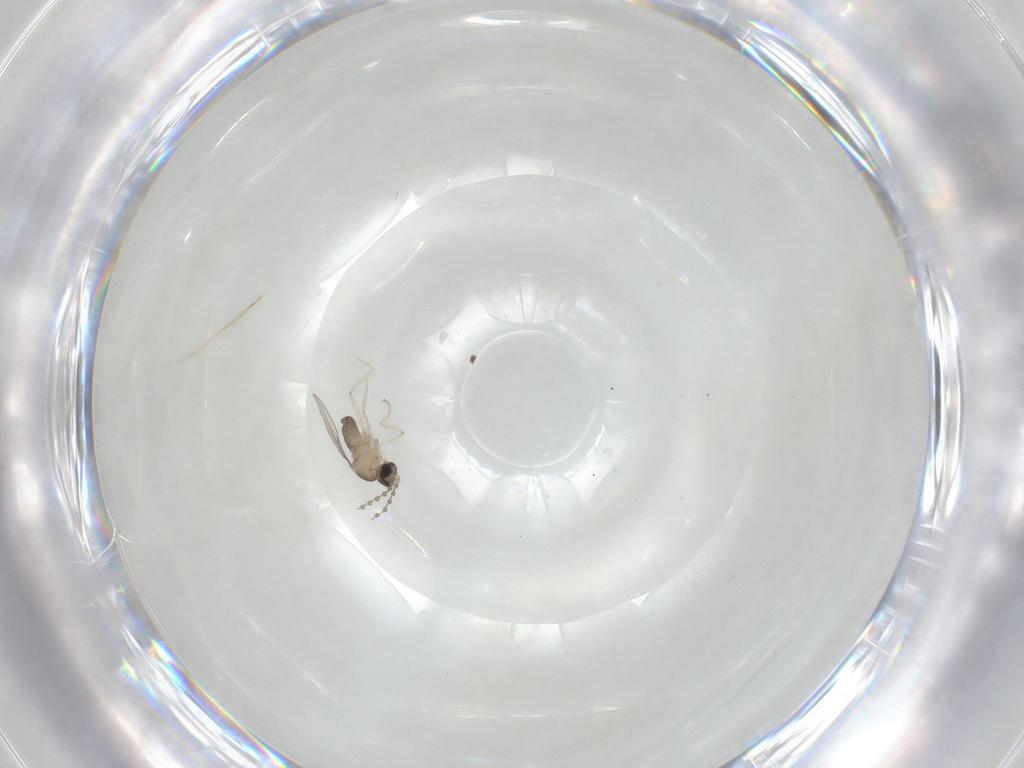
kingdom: Animalia
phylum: Arthropoda
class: Insecta
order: Diptera
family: Cecidomyiidae
